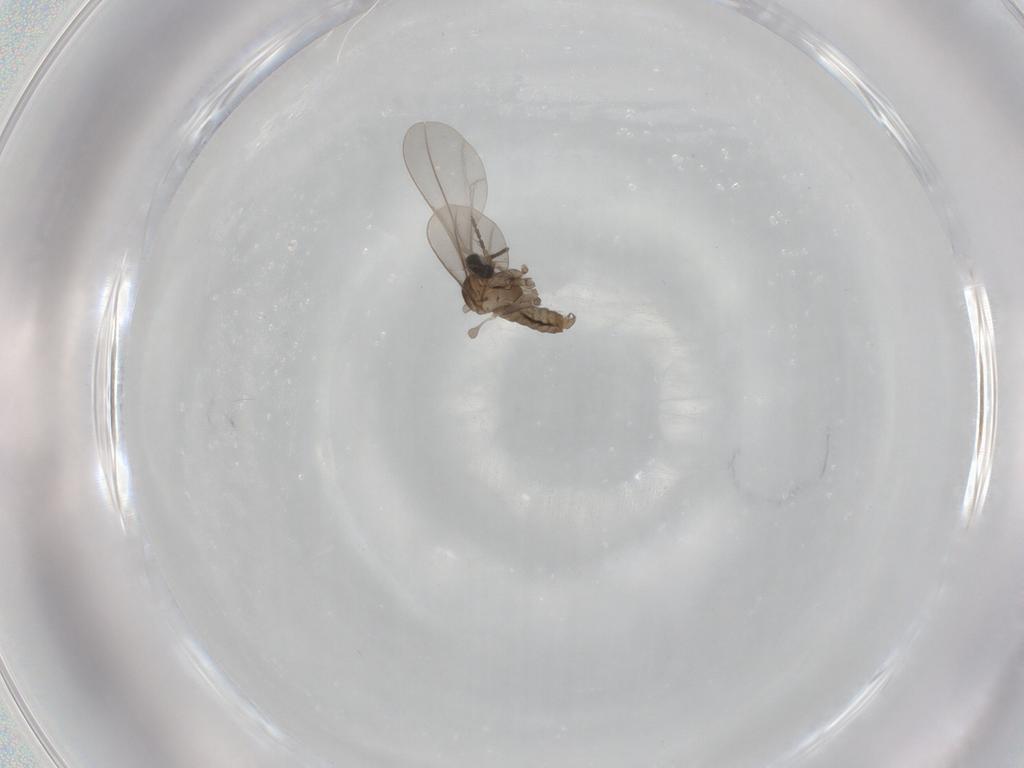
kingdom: Animalia
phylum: Arthropoda
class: Insecta
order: Diptera
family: Cecidomyiidae
